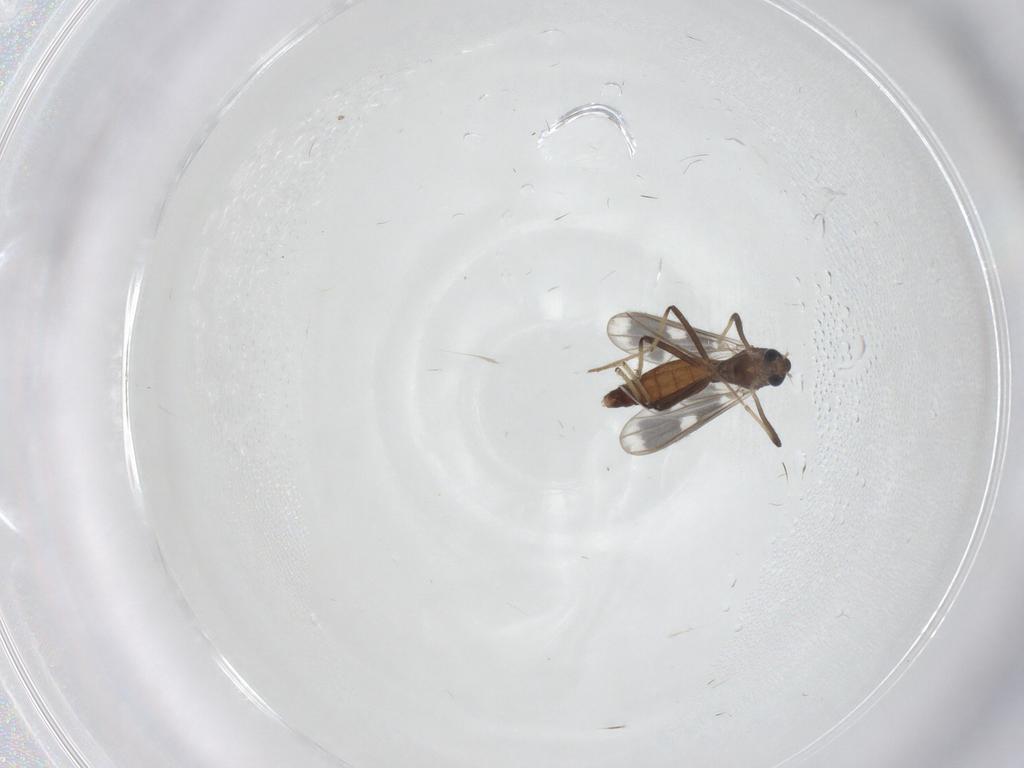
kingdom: Animalia
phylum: Arthropoda
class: Insecta
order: Diptera
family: Chironomidae
